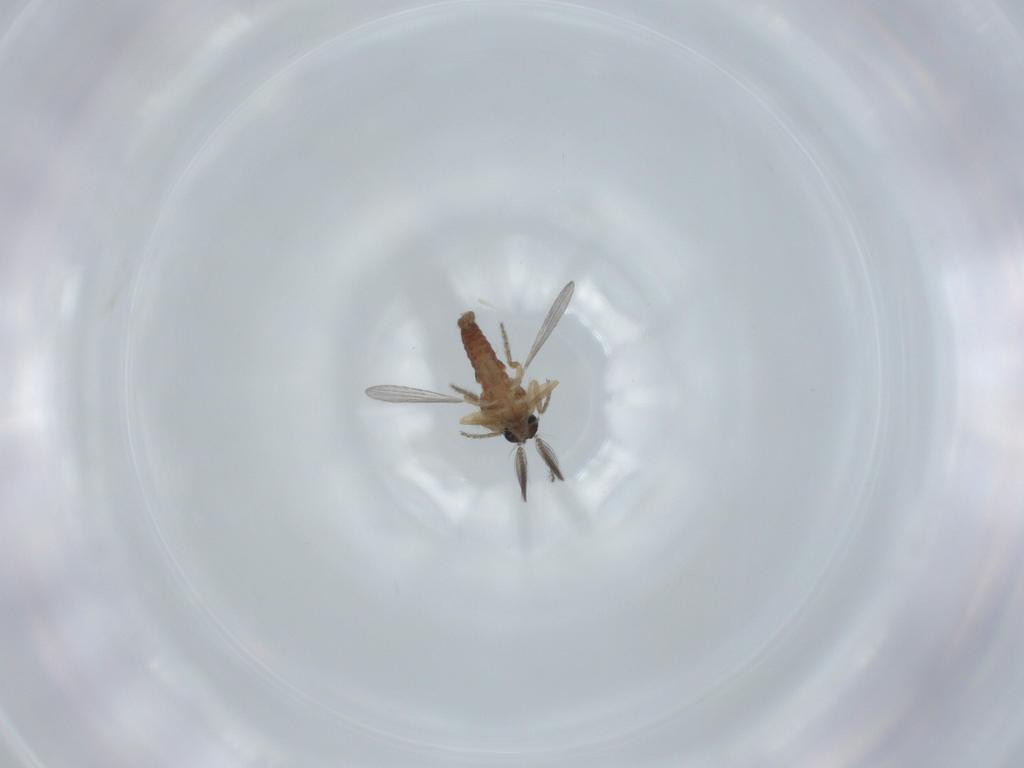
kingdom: Animalia
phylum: Arthropoda
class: Insecta
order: Diptera
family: Ceratopogonidae
